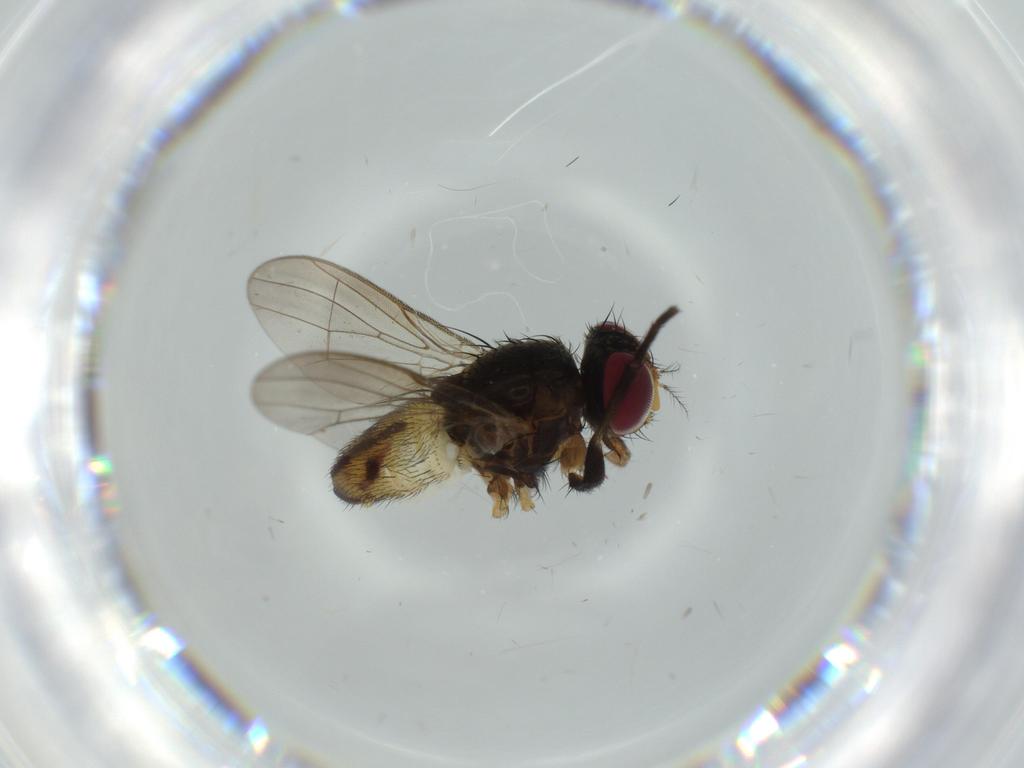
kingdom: Animalia
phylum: Arthropoda
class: Insecta
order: Diptera
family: Anthomyiidae
